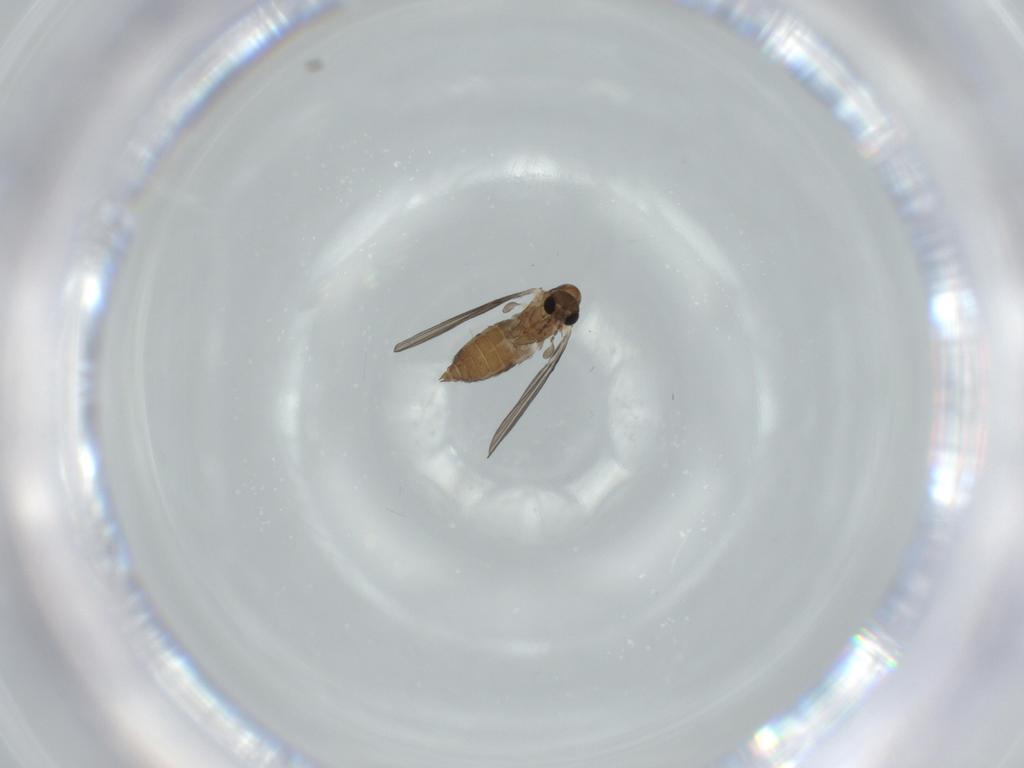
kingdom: Animalia
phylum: Arthropoda
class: Insecta
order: Diptera
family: Psychodidae
